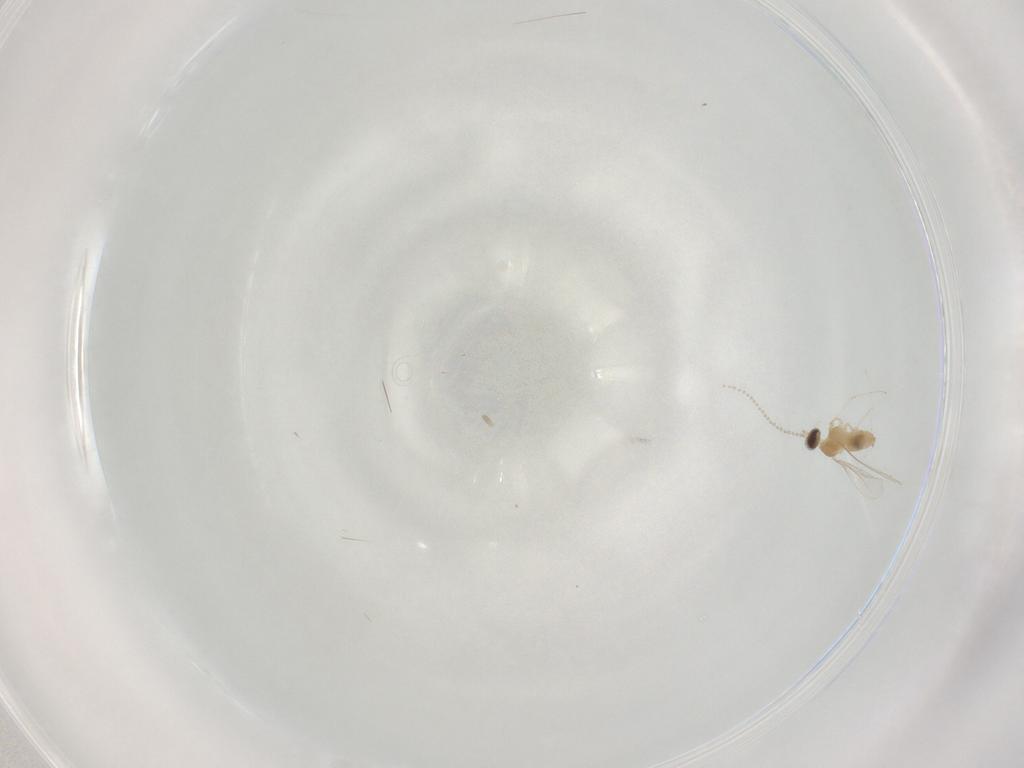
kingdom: Animalia
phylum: Arthropoda
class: Insecta
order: Diptera
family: Cecidomyiidae
